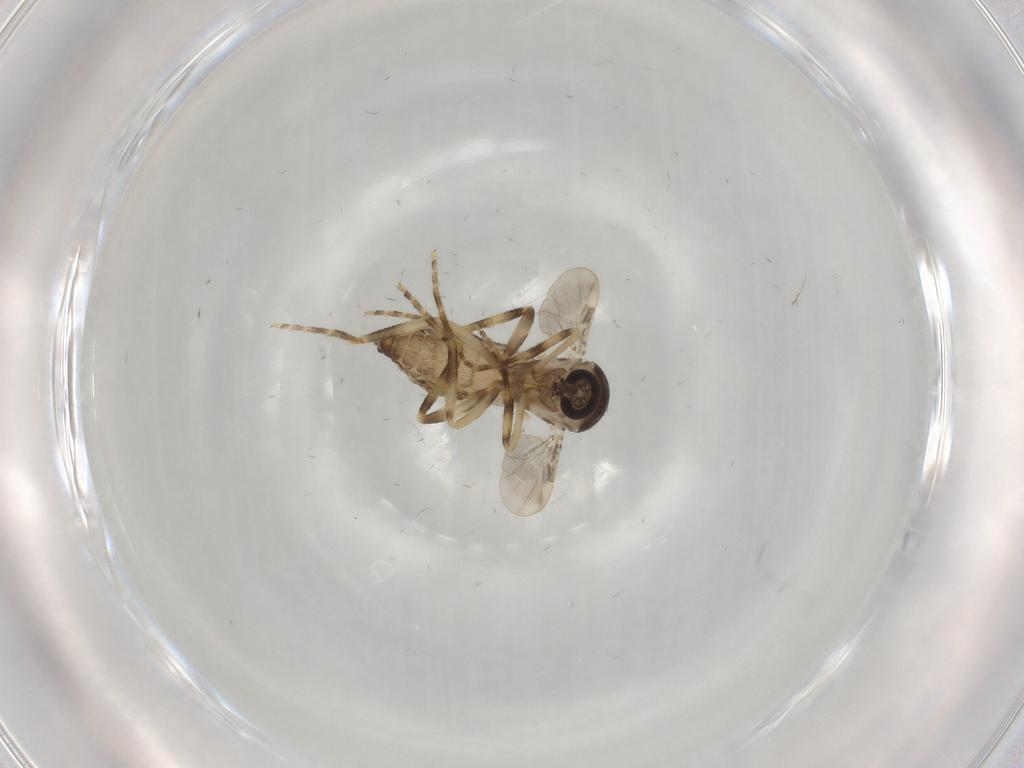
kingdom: Animalia
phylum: Arthropoda
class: Insecta
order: Diptera
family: Ceratopogonidae
